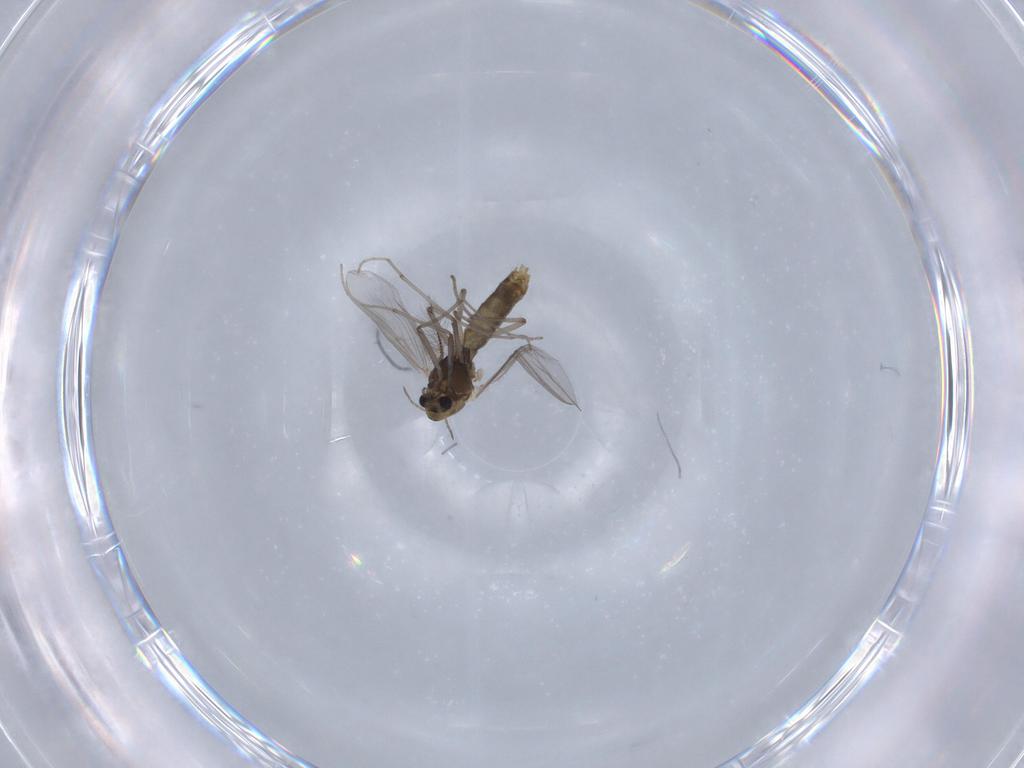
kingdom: Animalia
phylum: Arthropoda
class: Insecta
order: Diptera
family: Chironomidae
